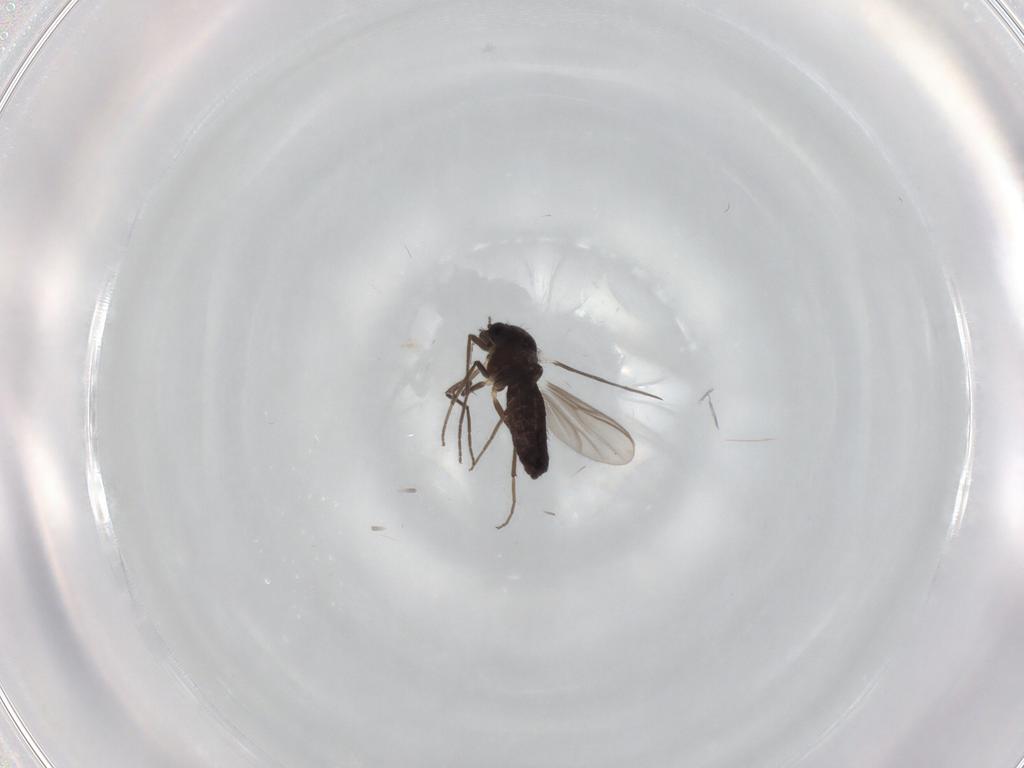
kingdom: Animalia
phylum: Arthropoda
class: Insecta
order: Diptera
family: Chironomidae
